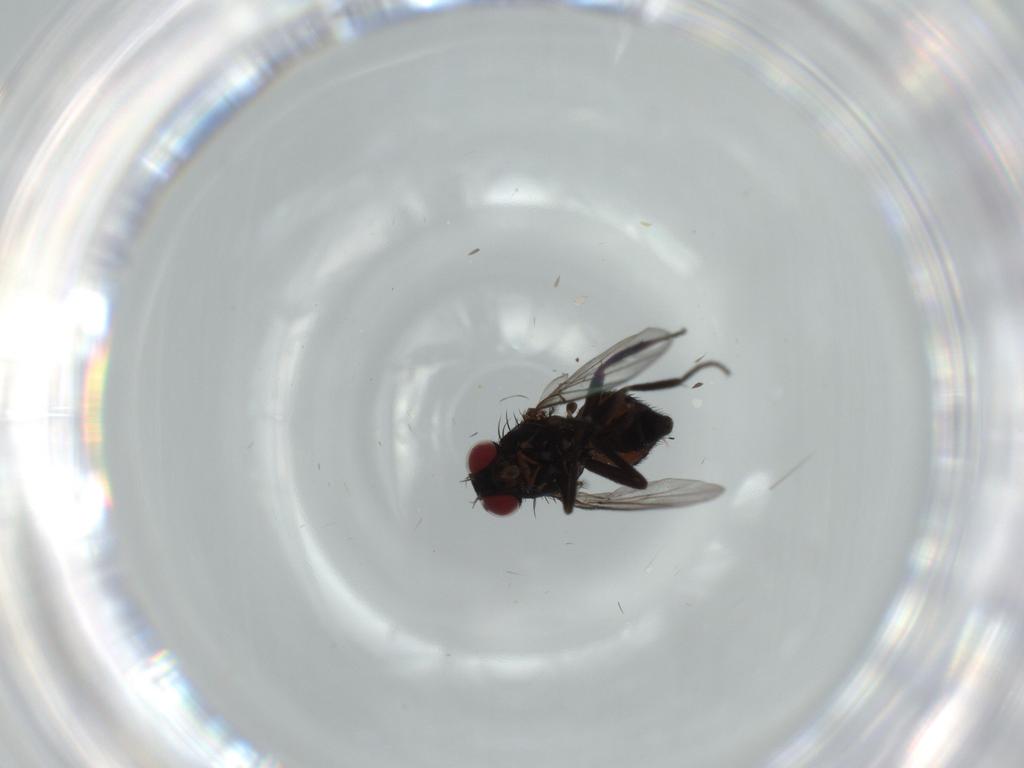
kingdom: Animalia
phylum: Arthropoda
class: Insecta
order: Diptera
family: Agromyzidae
